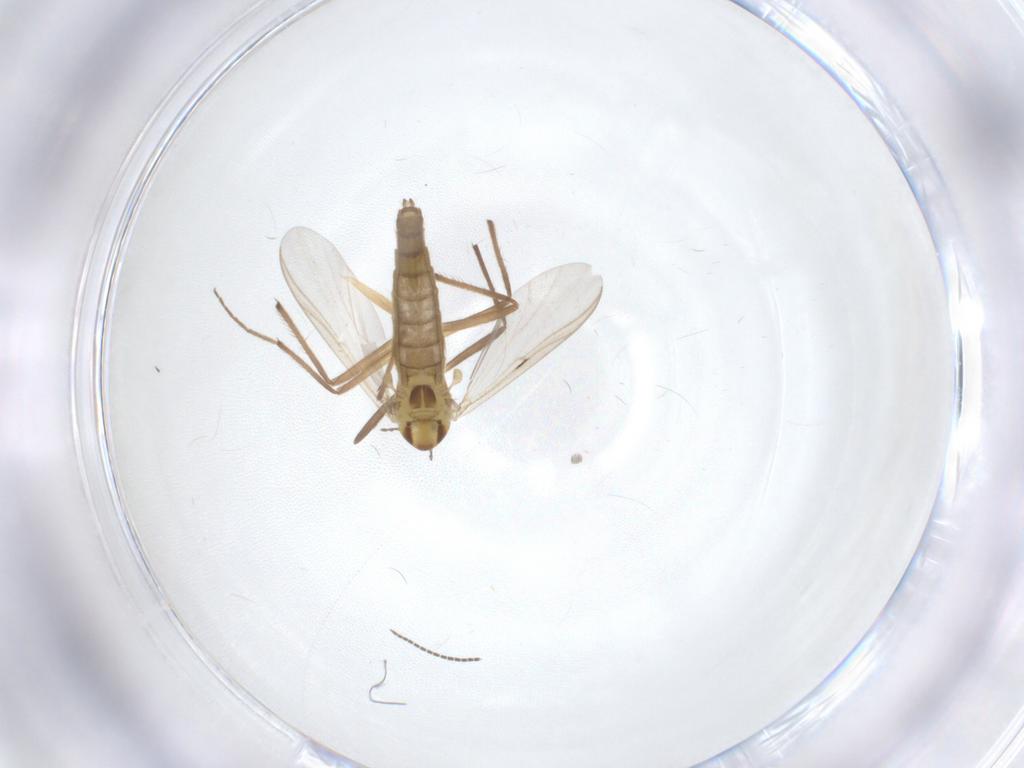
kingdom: Animalia
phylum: Arthropoda
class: Insecta
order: Diptera
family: Chironomidae
